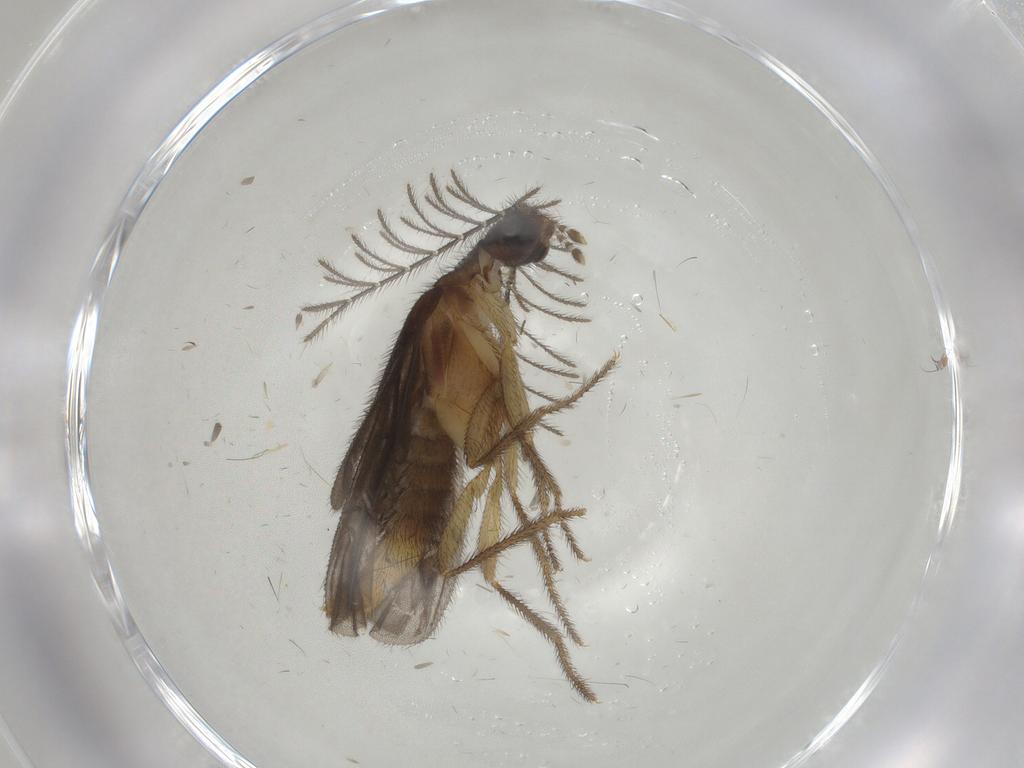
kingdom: Animalia
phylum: Arthropoda
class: Insecta
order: Coleoptera
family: Phengodidae
